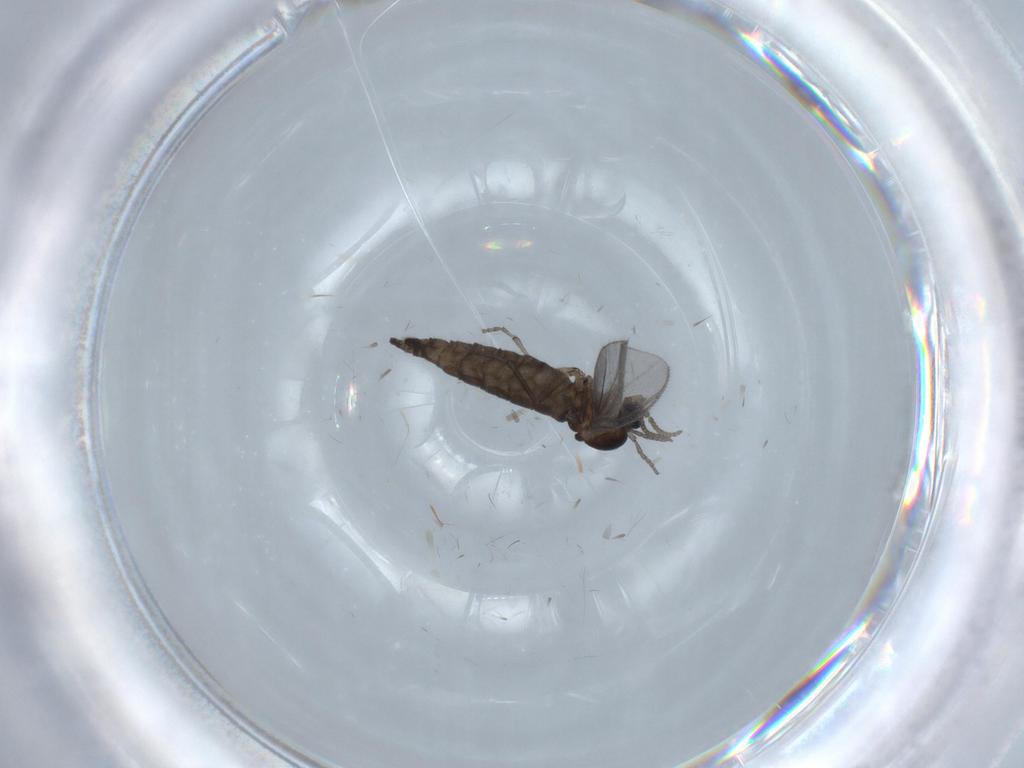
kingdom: Animalia
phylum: Arthropoda
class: Insecta
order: Diptera
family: Sciaridae
